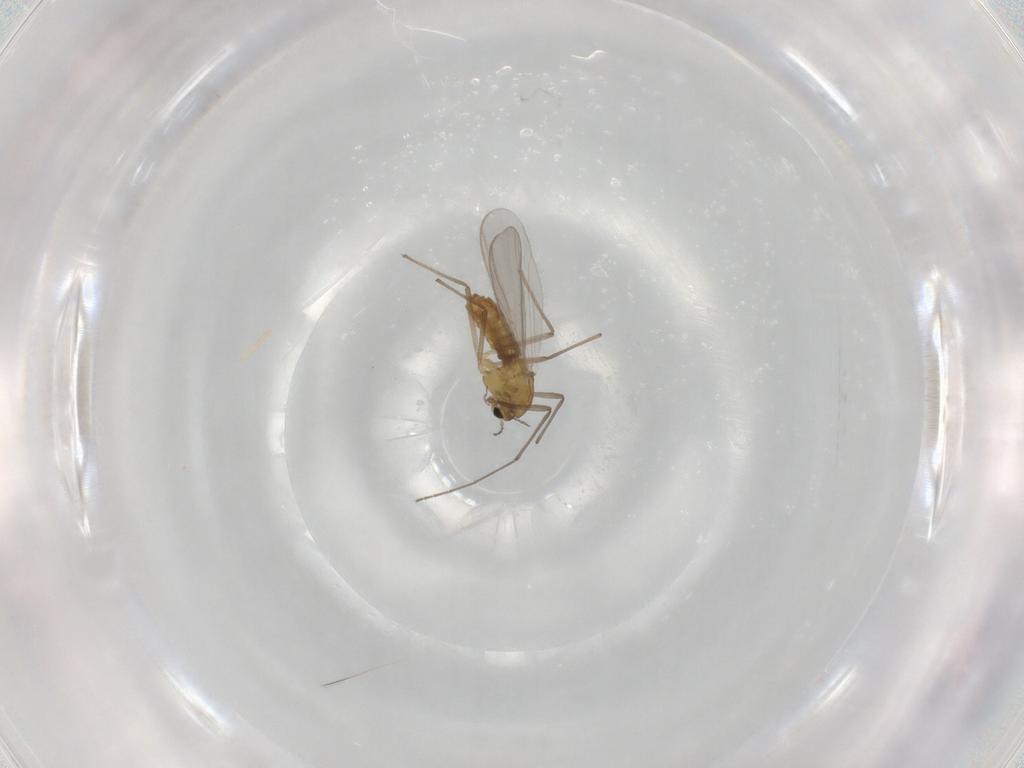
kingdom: Animalia
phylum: Arthropoda
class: Insecta
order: Diptera
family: Chironomidae
